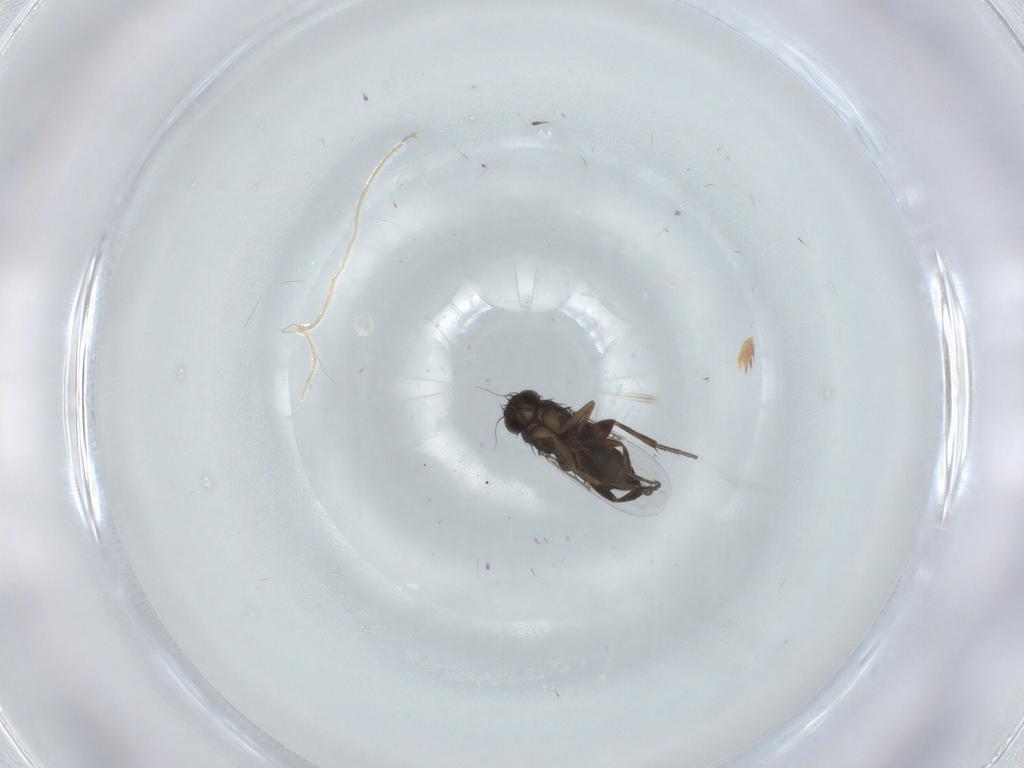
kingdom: Animalia
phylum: Arthropoda
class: Insecta
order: Diptera
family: Phoridae
